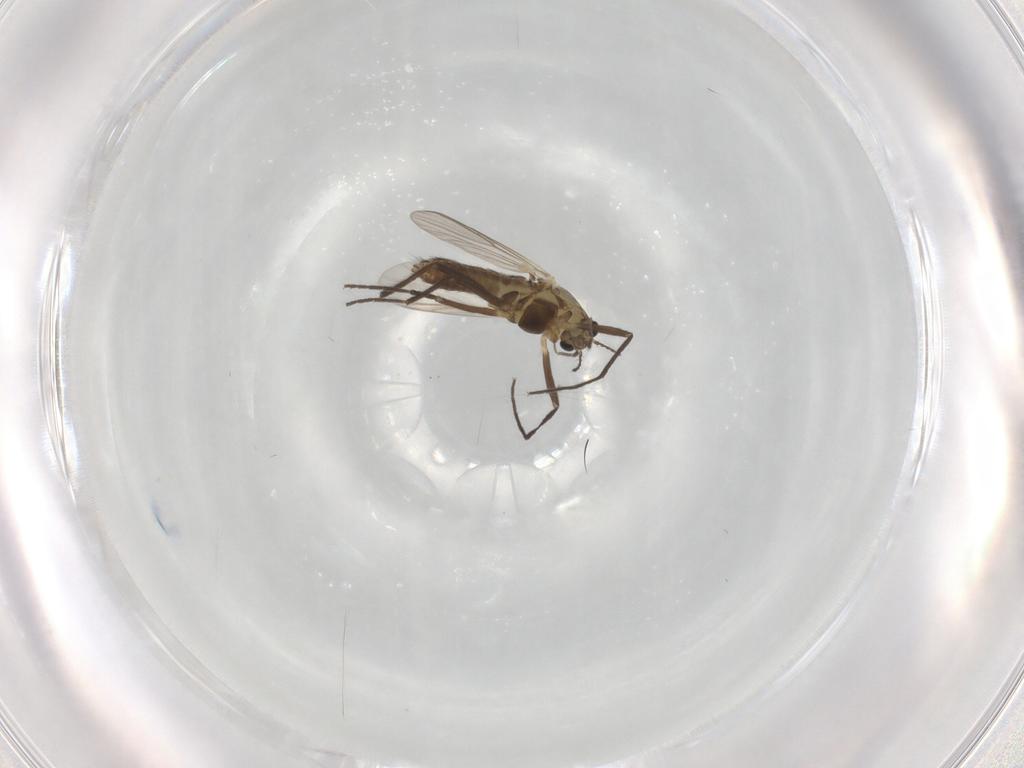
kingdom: Animalia
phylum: Arthropoda
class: Insecta
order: Diptera
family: Chironomidae
